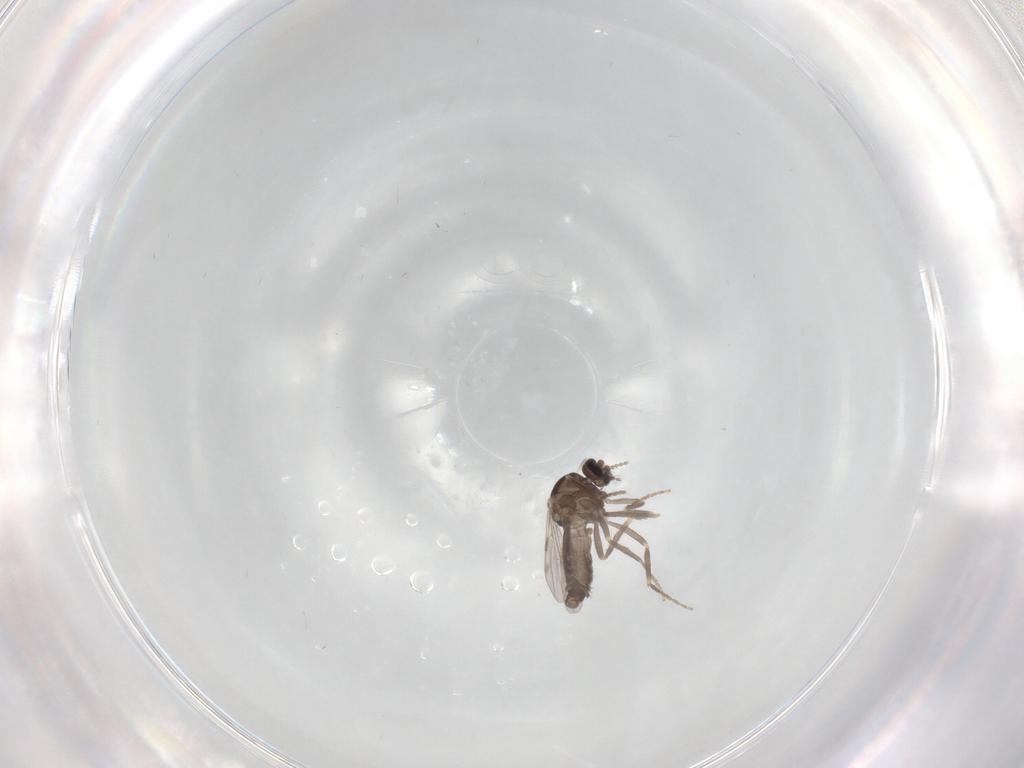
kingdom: Animalia
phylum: Arthropoda
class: Insecta
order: Diptera
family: Ceratopogonidae
